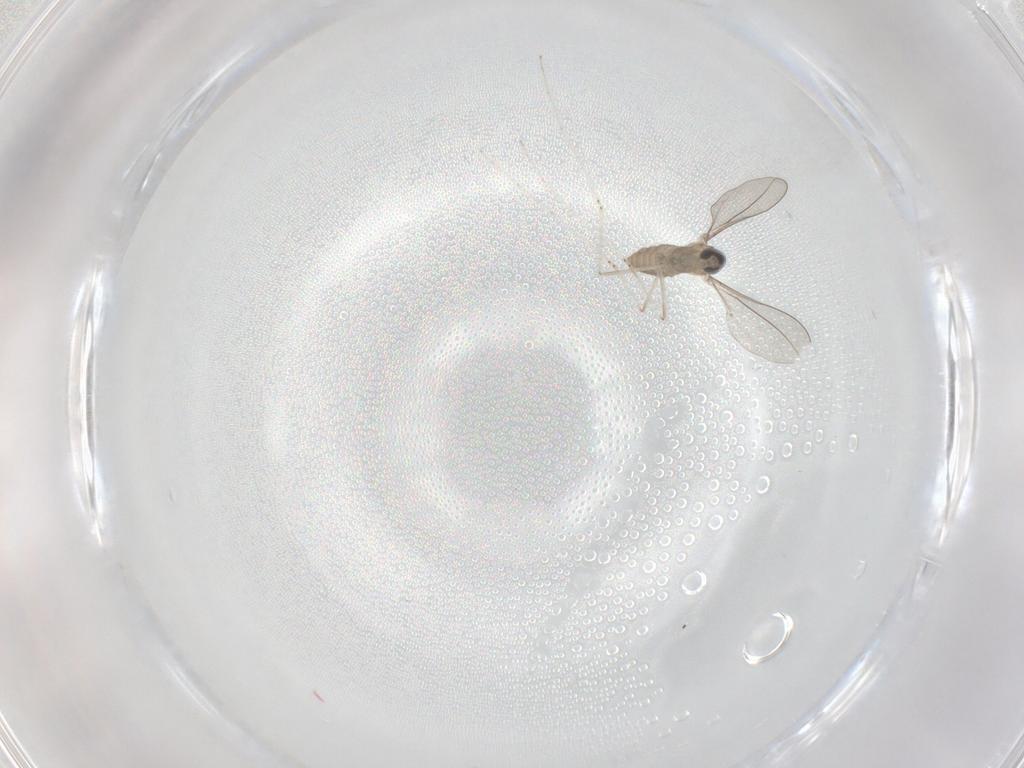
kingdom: Animalia
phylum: Arthropoda
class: Insecta
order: Diptera
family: Cecidomyiidae
